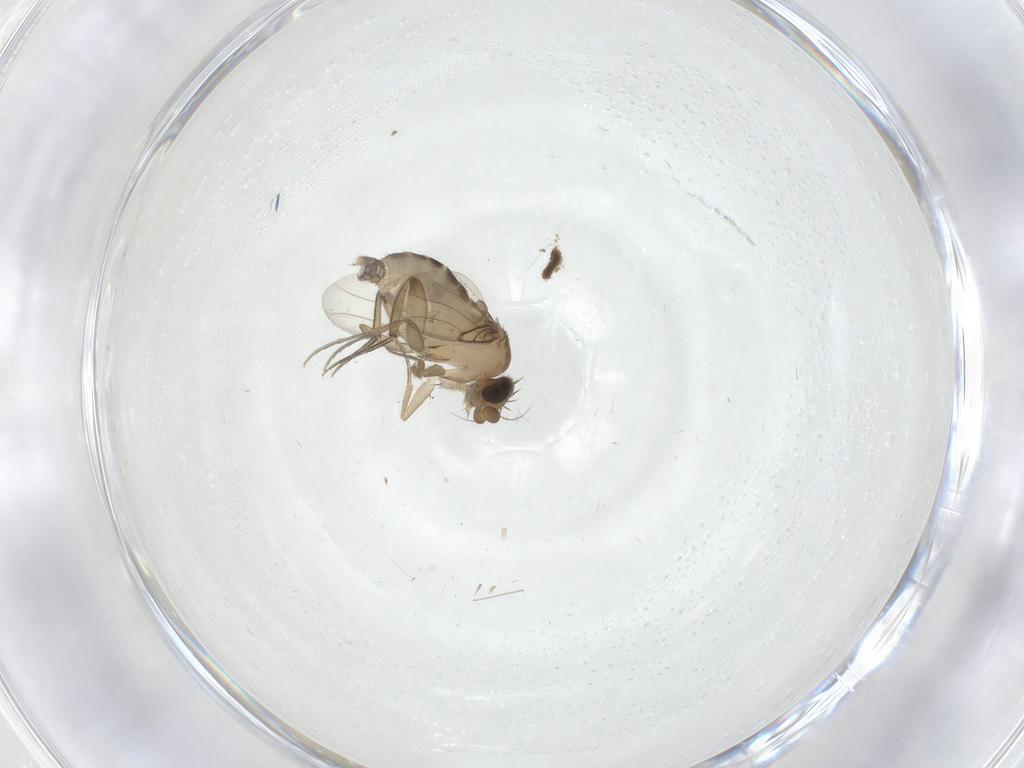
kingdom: Animalia
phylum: Arthropoda
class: Insecta
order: Diptera
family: Phoridae
